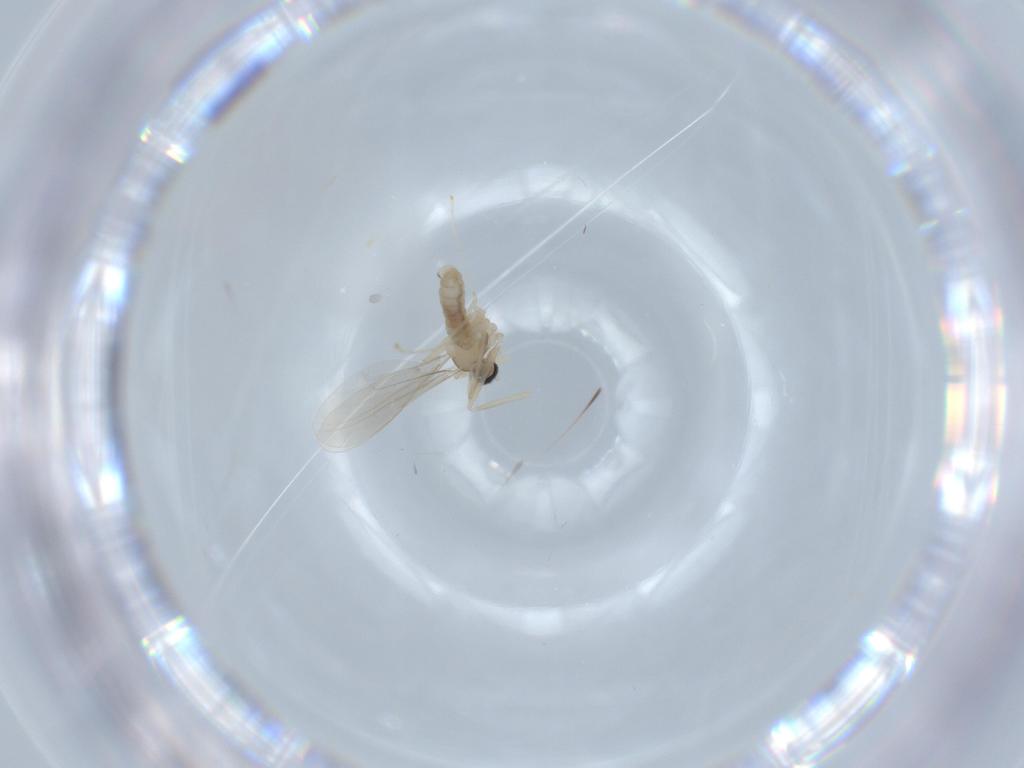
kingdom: Animalia
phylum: Arthropoda
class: Insecta
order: Diptera
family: Cecidomyiidae
